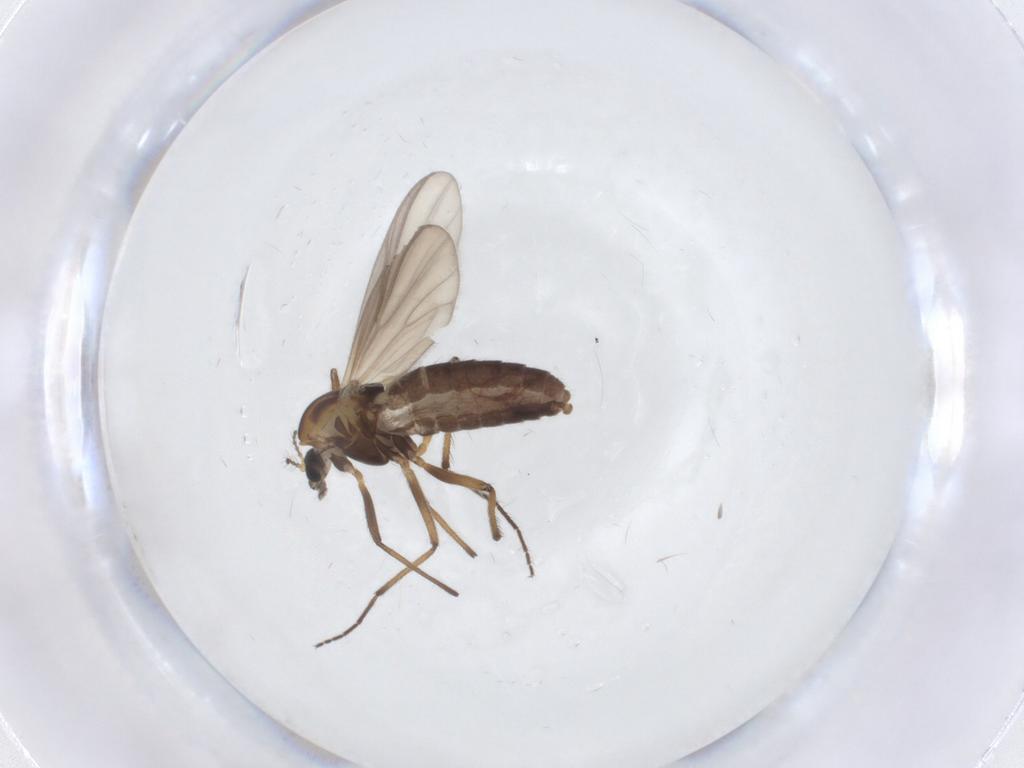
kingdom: Animalia
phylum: Arthropoda
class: Insecta
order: Diptera
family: Chironomidae
